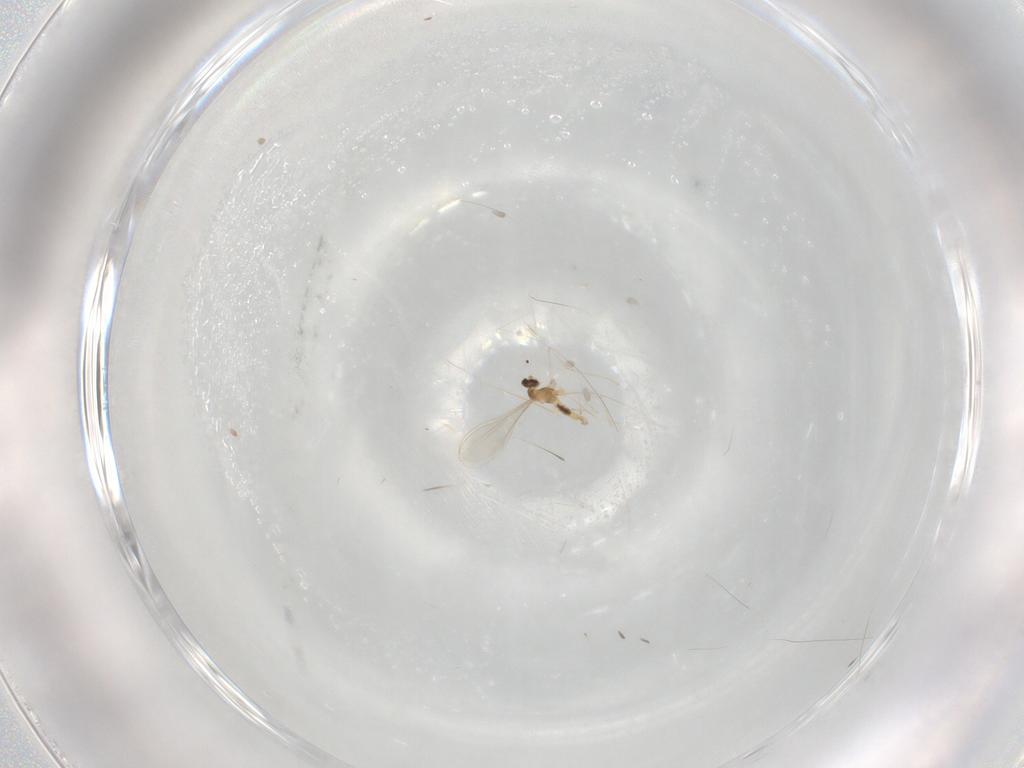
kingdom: Animalia
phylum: Arthropoda
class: Insecta
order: Diptera
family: Cecidomyiidae
